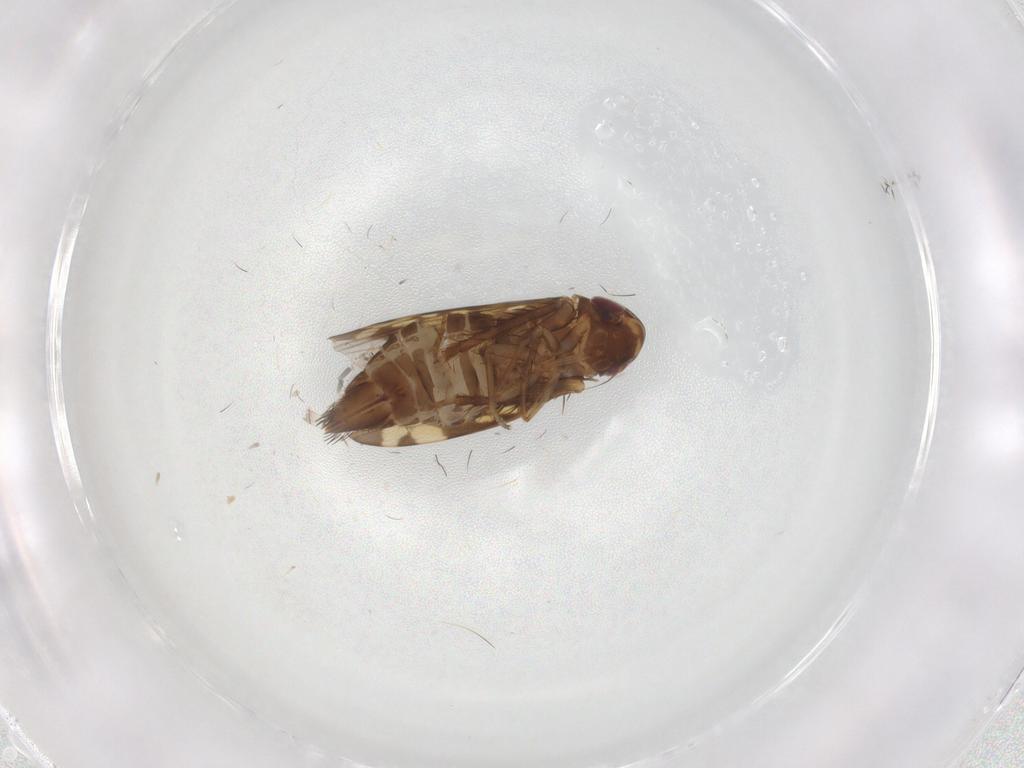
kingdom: Animalia
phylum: Arthropoda
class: Insecta
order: Hemiptera
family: Cicadellidae
